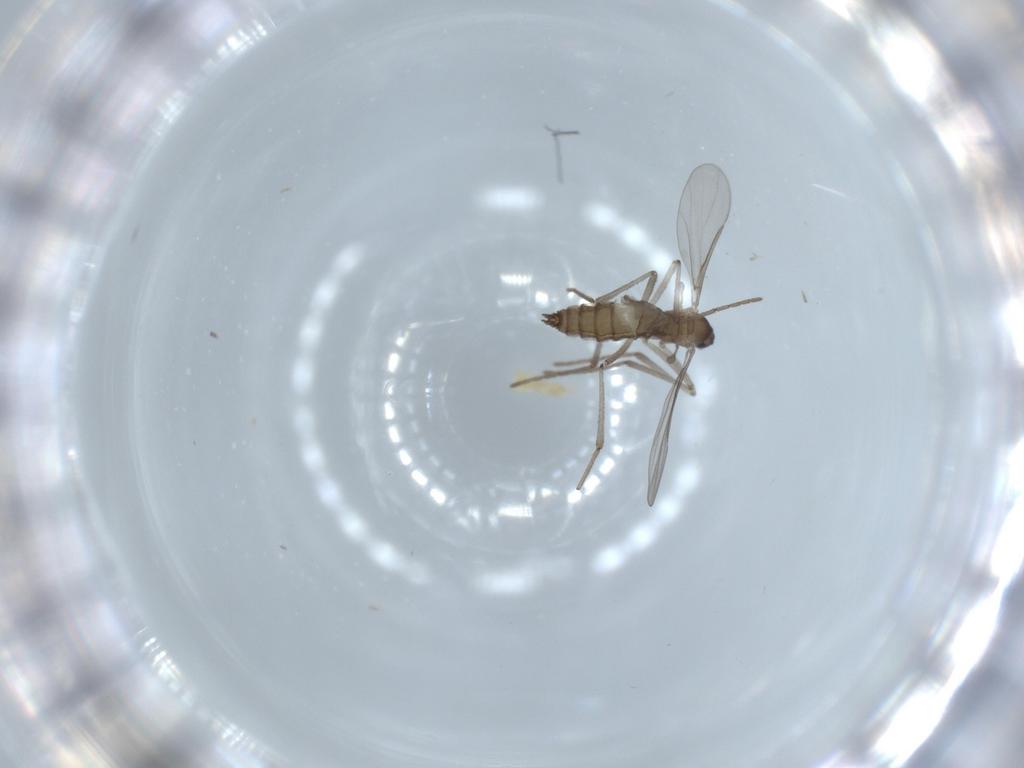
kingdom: Animalia
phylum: Arthropoda
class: Insecta
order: Diptera
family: Chironomidae
